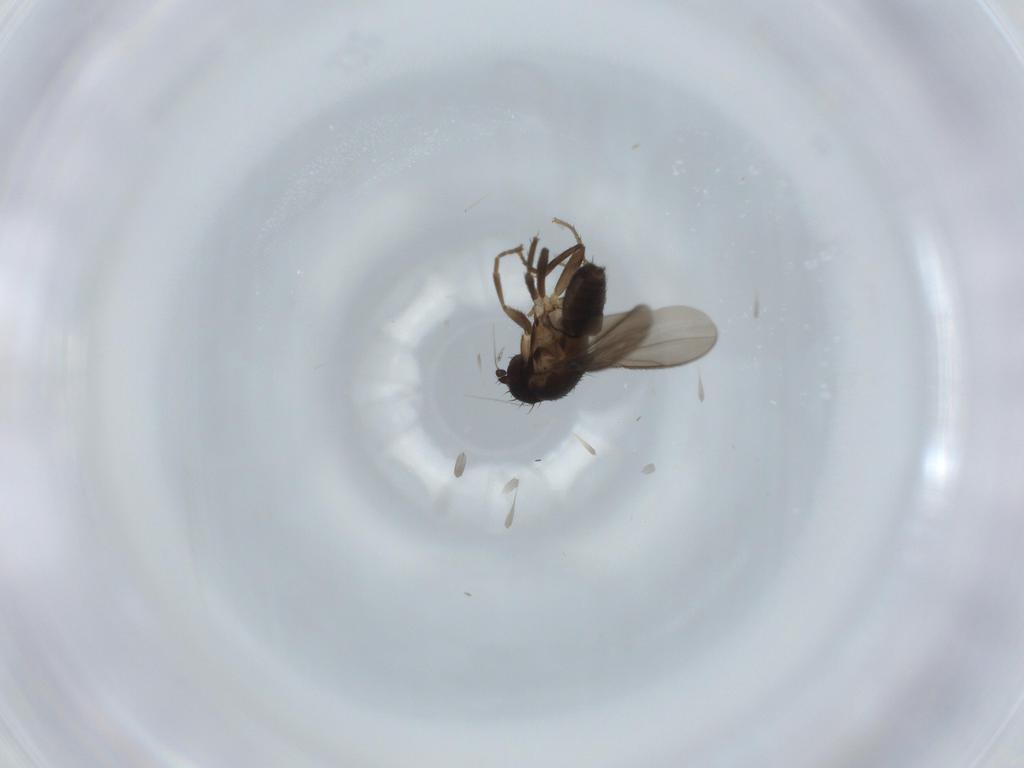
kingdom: Animalia
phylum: Arthropoda
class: Insecta
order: Diptera
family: Sphaeroceridae
